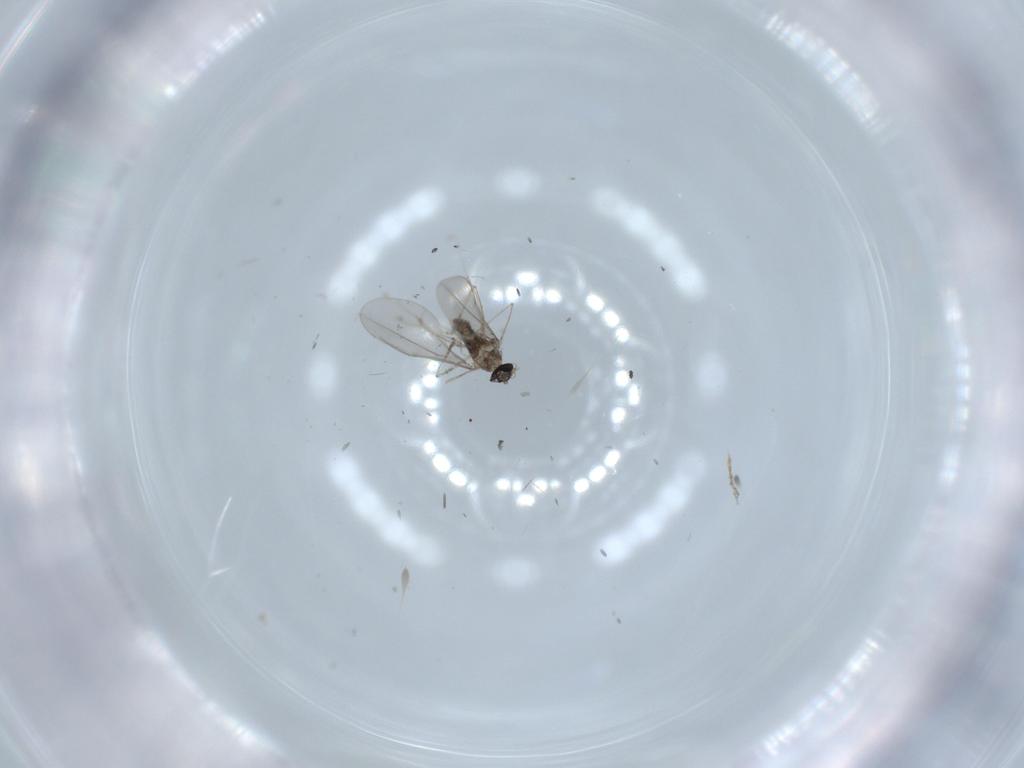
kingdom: Animalia
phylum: Arthropoda
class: Insecta
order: Diptera
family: Cecidomyiidae
